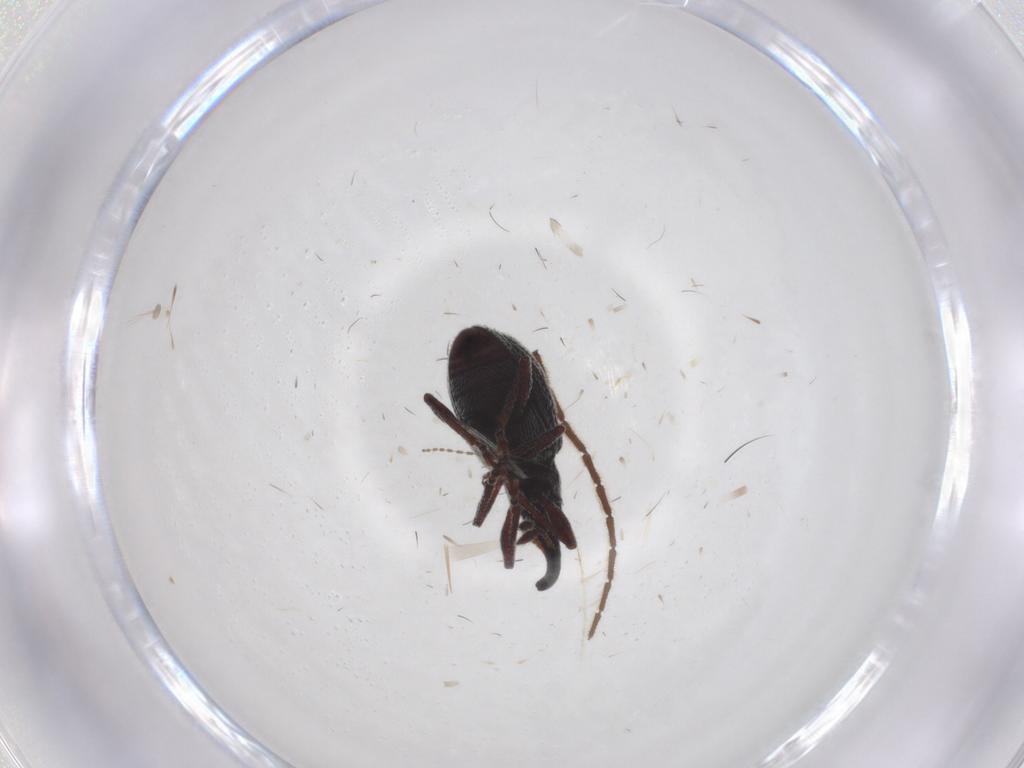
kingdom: Animalia
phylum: Arthropoda
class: Insecta
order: Coleoptera
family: Brentidae
